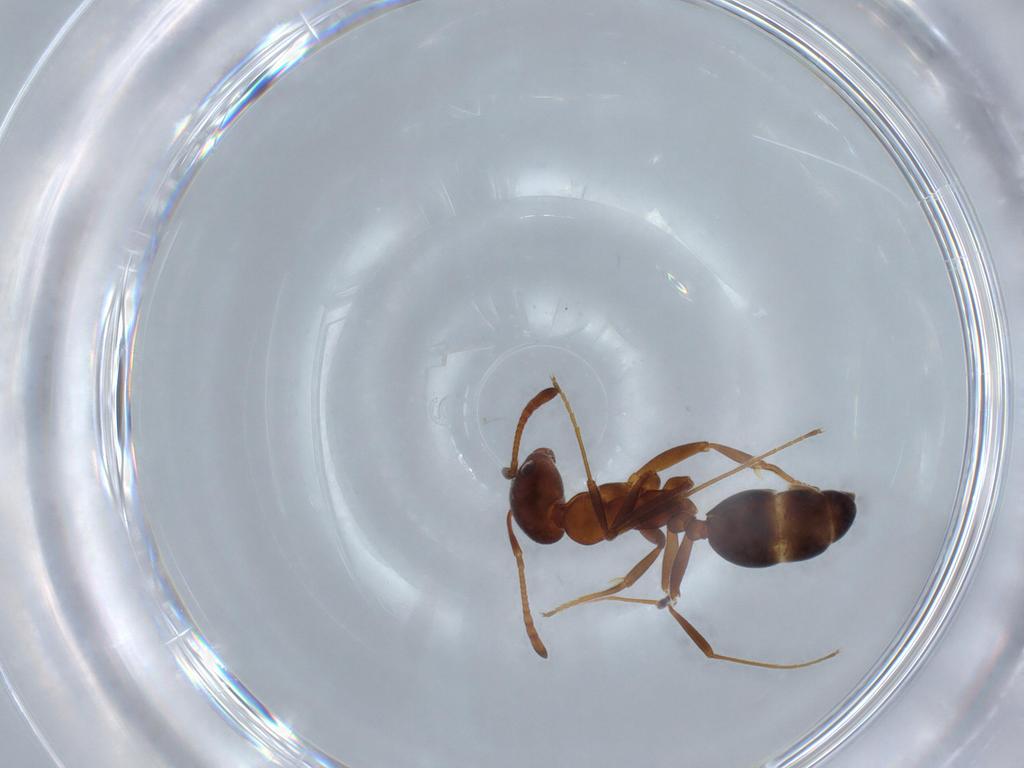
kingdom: Animalia
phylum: Arthropoda
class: Insecta
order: Hymenoptera
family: Formicidae
